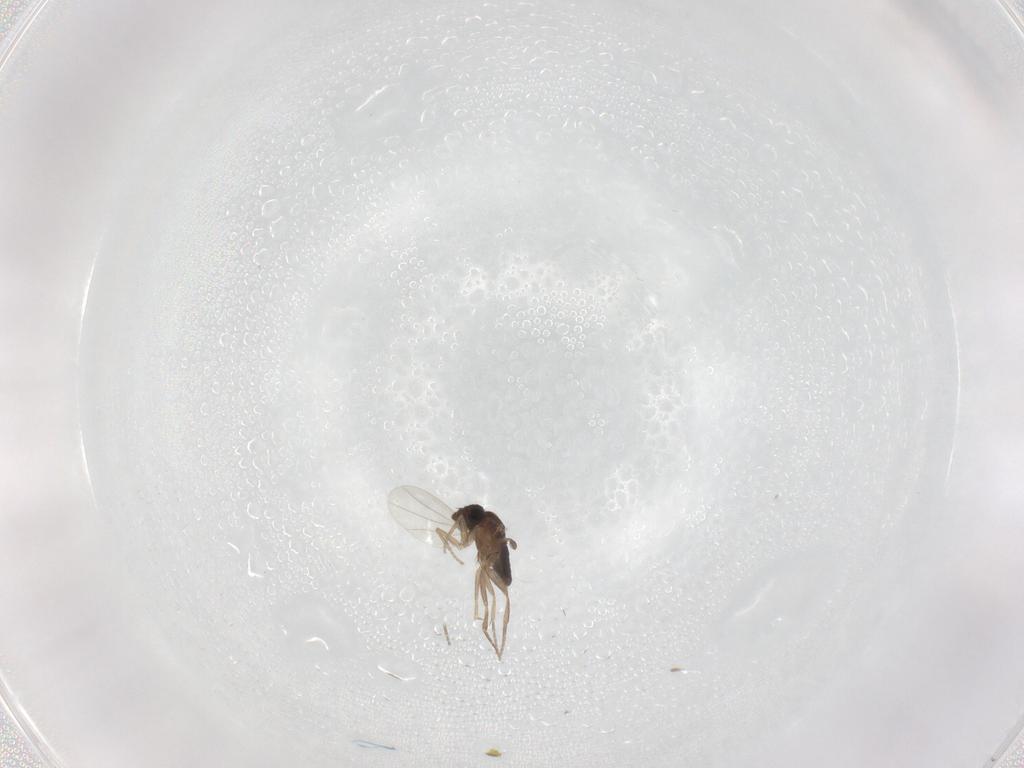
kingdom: Animalia
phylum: Arthropoda
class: Insecta
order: Diptera
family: Phoridae
